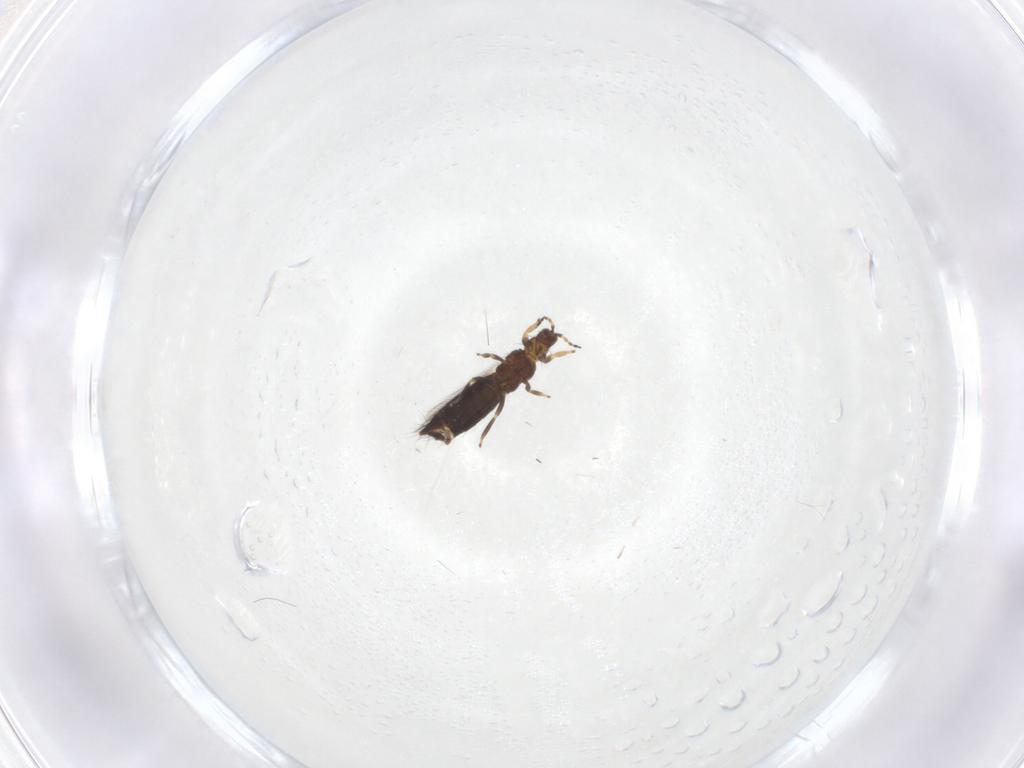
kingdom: Animalia
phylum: Arthropoda
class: Insecta
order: Thysanoptera
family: Thripidae
